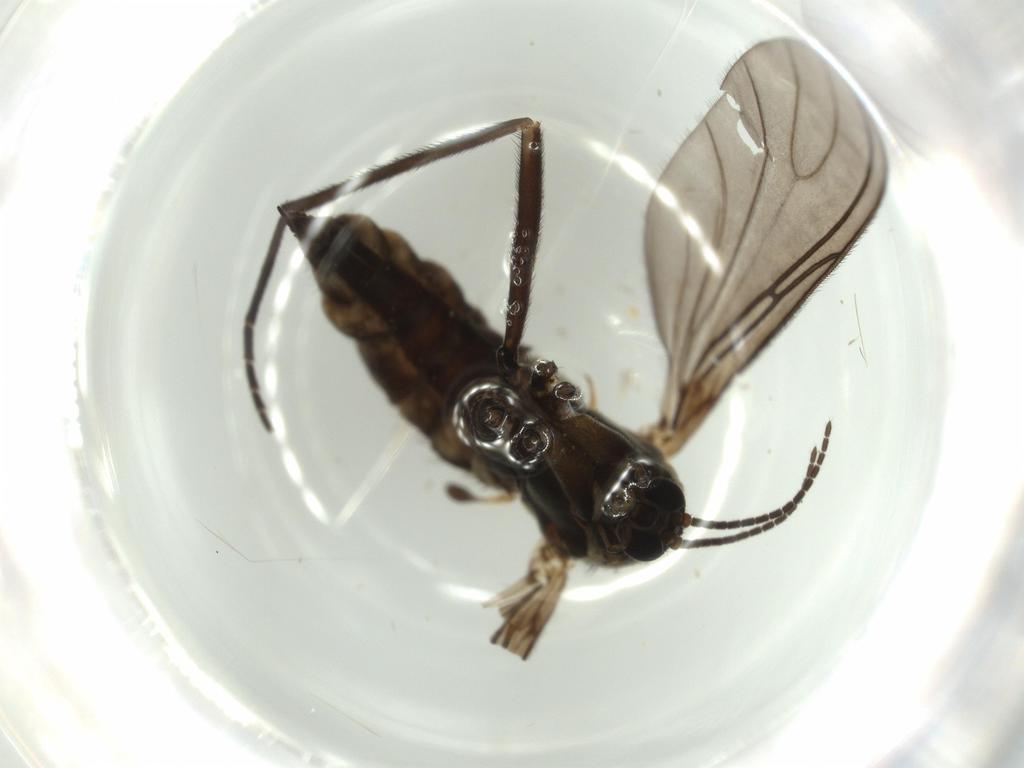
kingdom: Animalia
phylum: Arthropoda
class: Insecta
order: Diptera
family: Sciaridae
